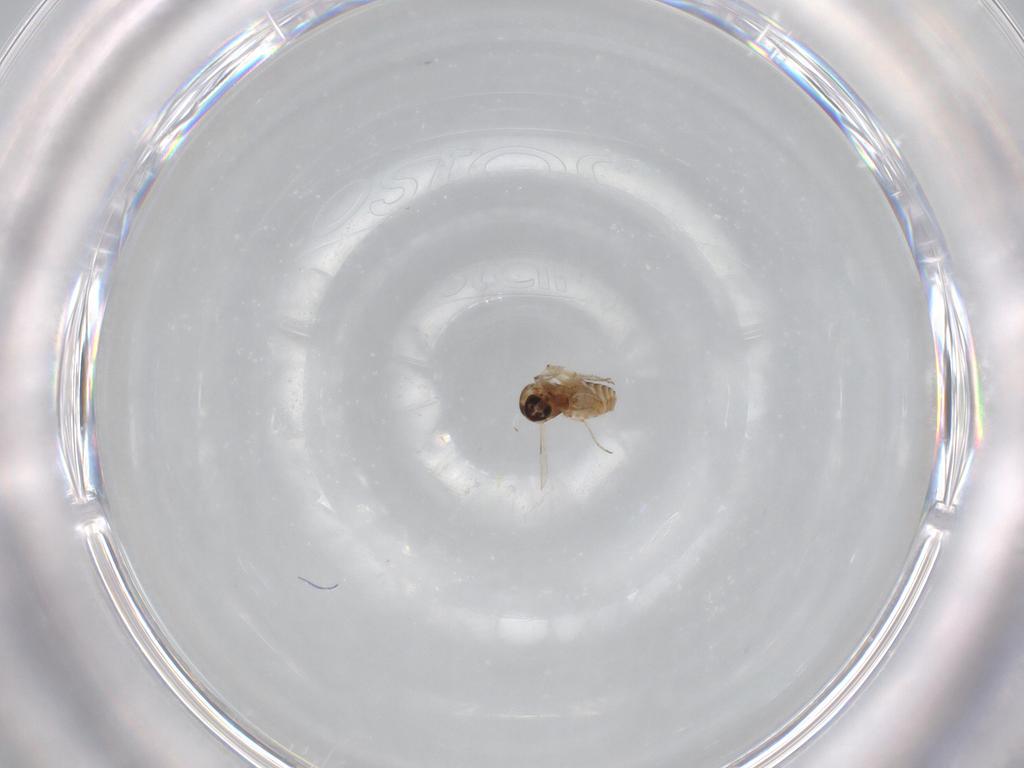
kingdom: Animalia
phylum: Arthropoda
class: Insecta
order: Diptera
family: Ceratopogonidae
